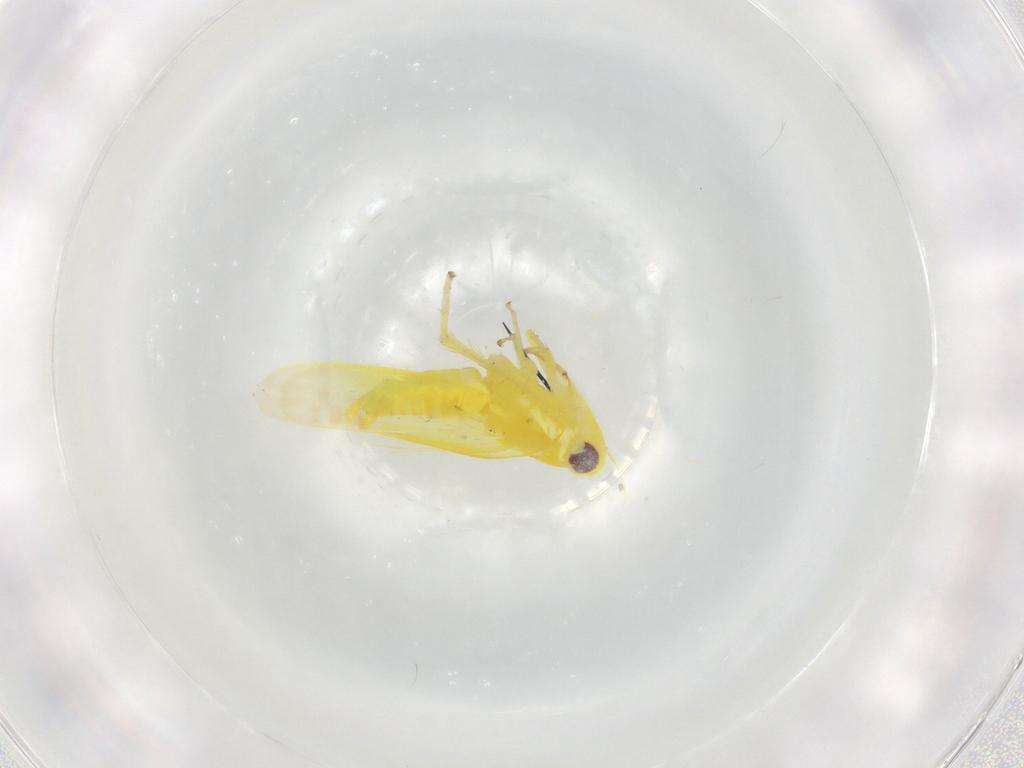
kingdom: Animalia
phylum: Arthropoda
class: Insecta
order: Hemiptera
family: Cicadellidae
